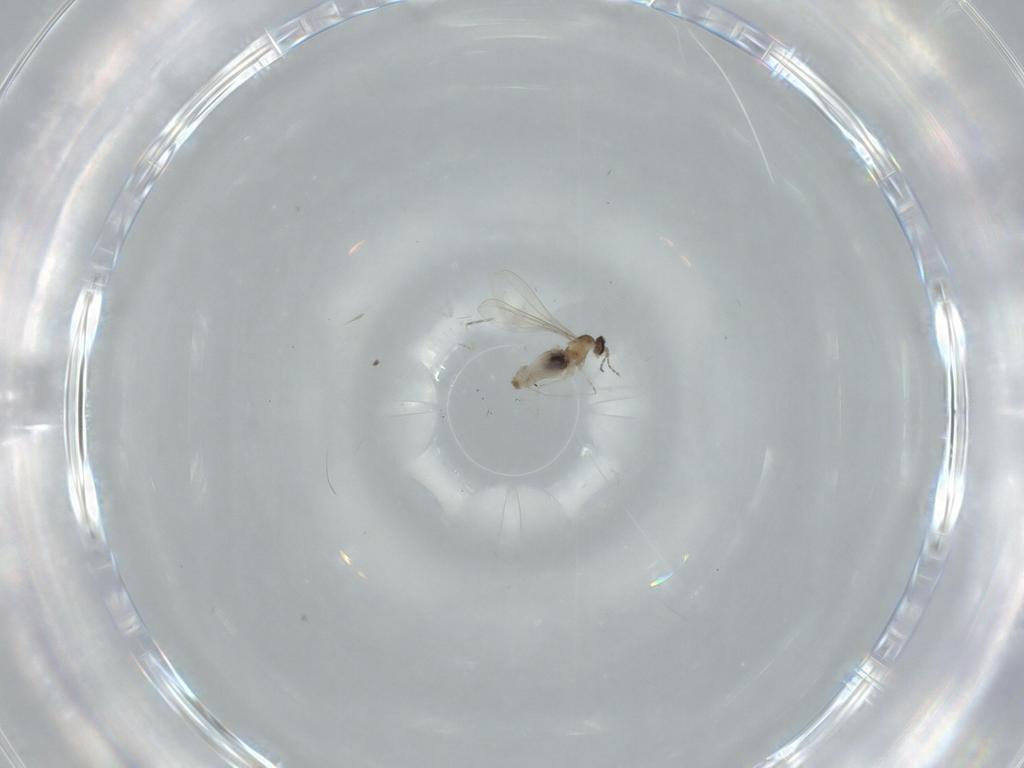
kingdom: Animalia
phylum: Arthropoda
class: Insecta
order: Diptera
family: Cecidomyiidae
